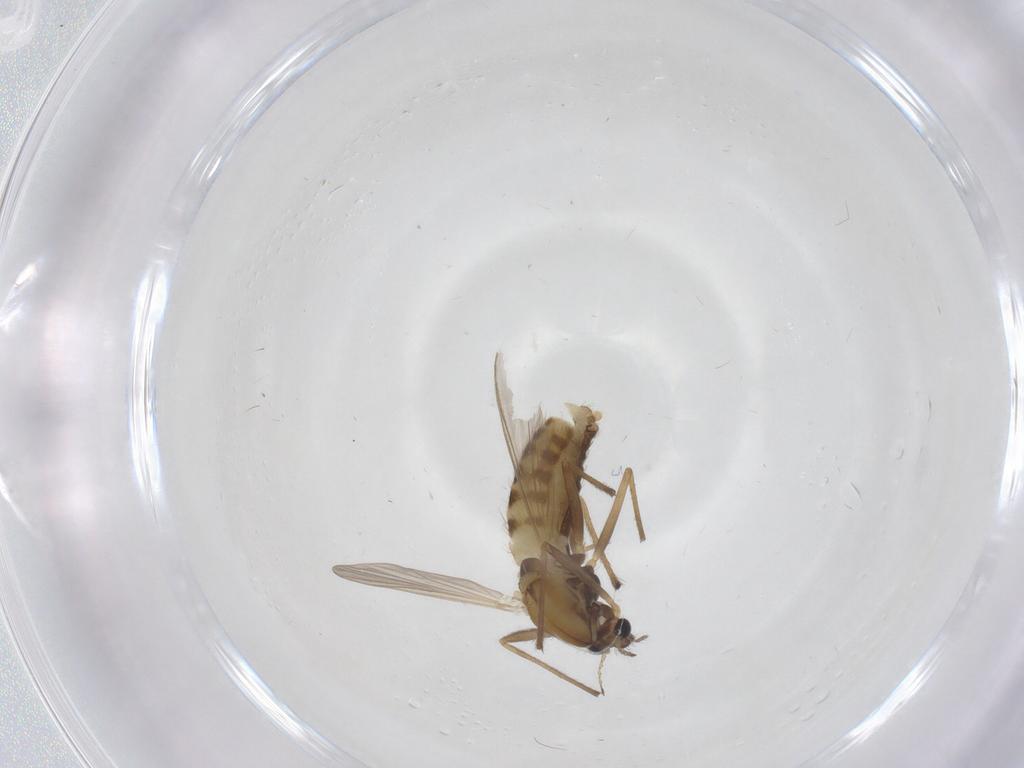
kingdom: Animalia
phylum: Arthropoda
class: Insecta
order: Diptera
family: Chironomidae
